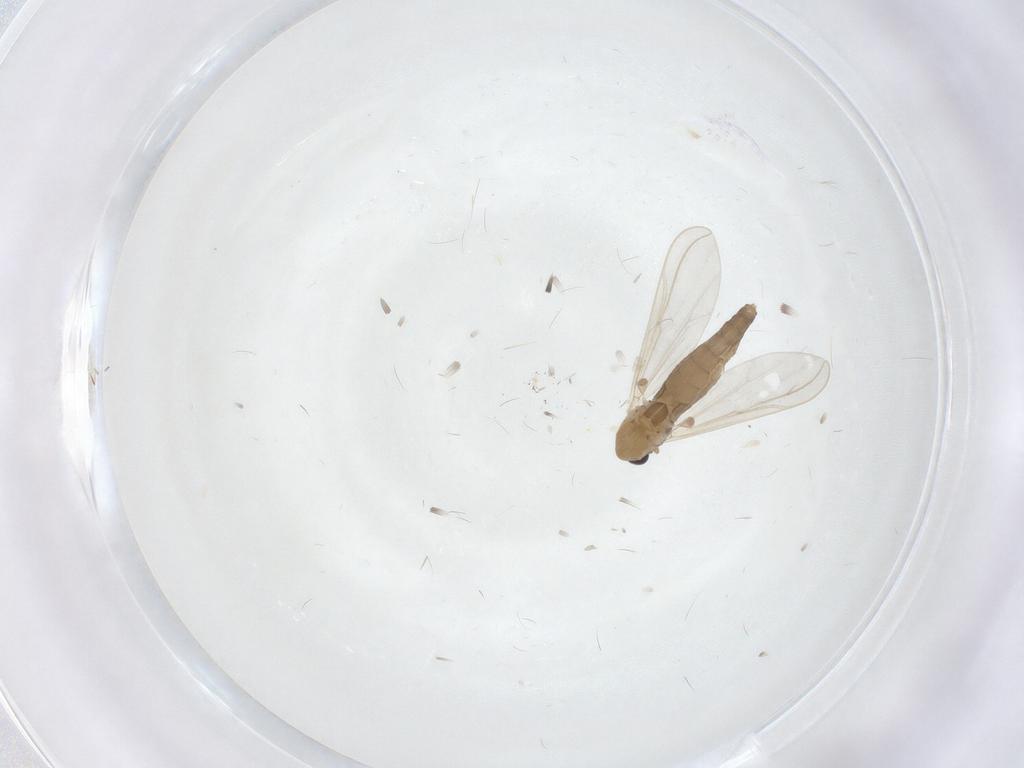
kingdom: Animalia
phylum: Arthropoda
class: Insecta
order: Diptera
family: Chironomidae
